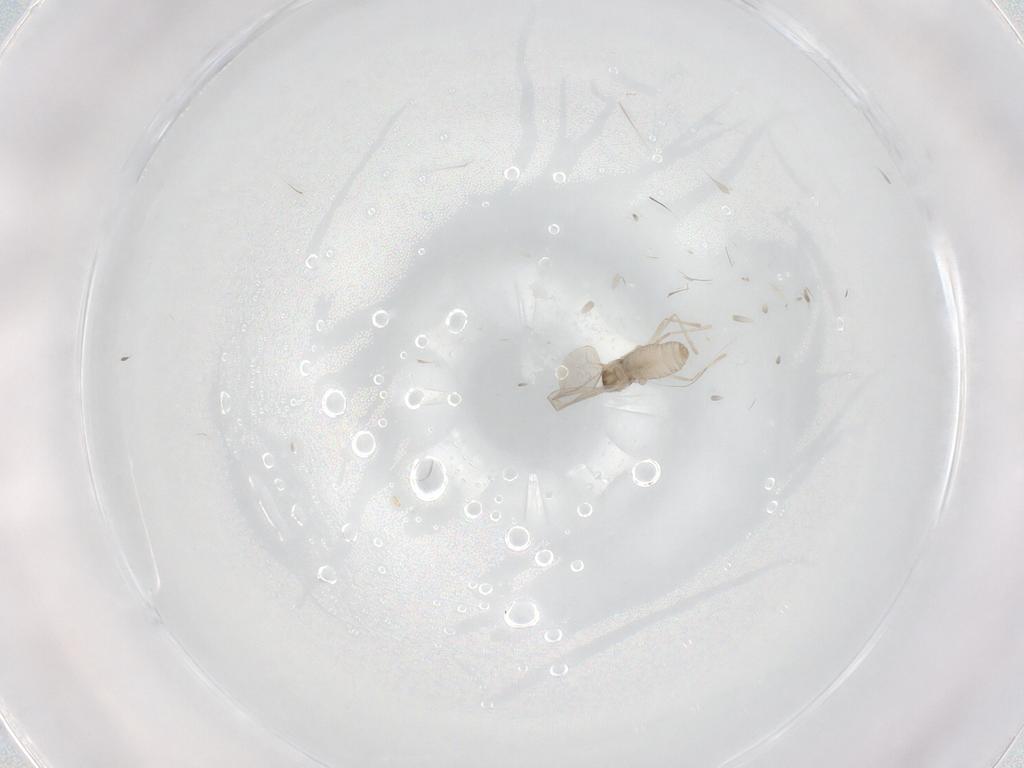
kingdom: Animalia
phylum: Arthropoda
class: Insecta
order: Diptera
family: Cecidomyiidae
